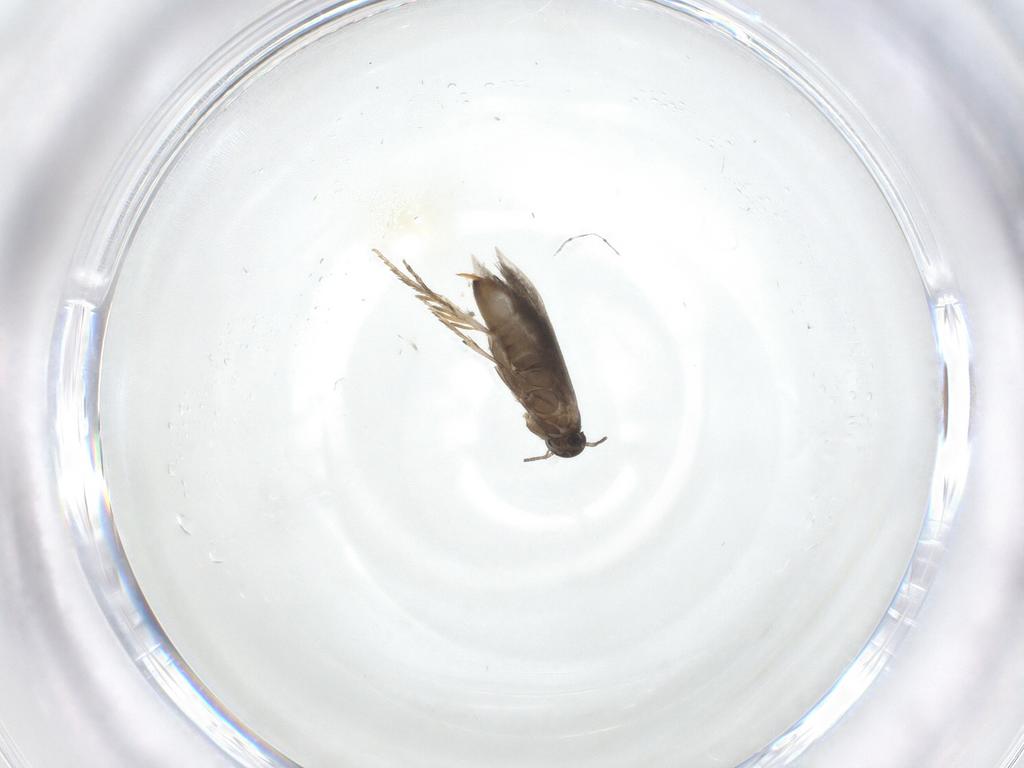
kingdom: Animalia
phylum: Arthropoda
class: Insecta
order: Lepidoptera
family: Heliozelidae
